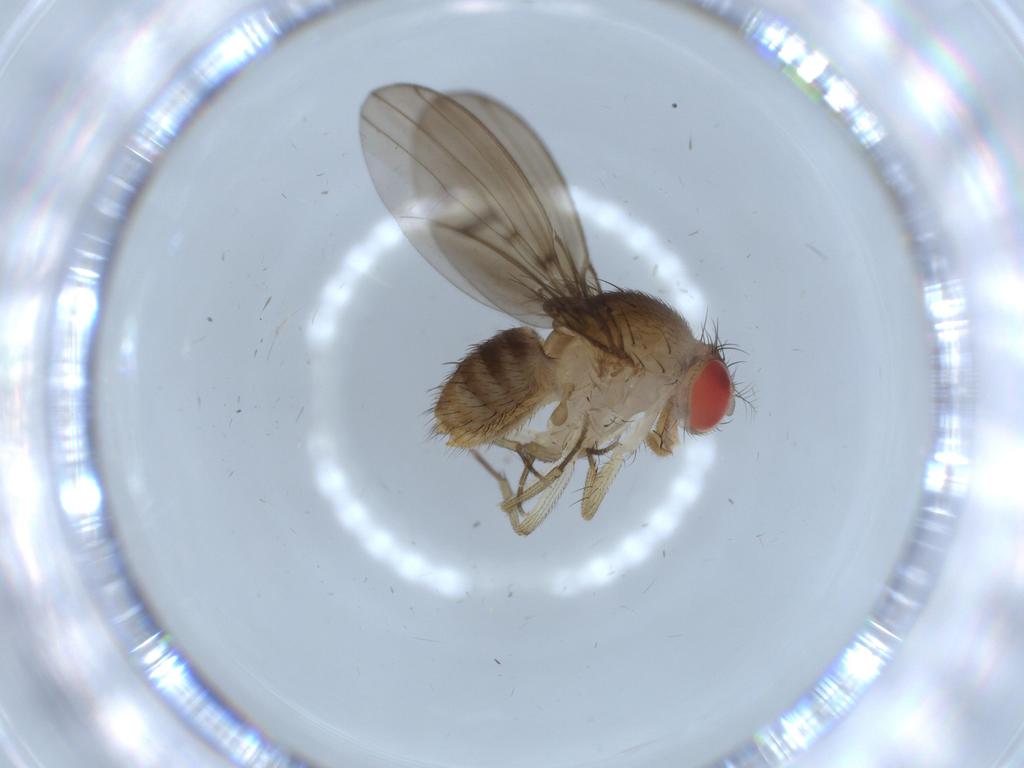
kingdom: Animalia
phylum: Arthropoda
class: Insecta
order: Diptera
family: Drosophilidae
